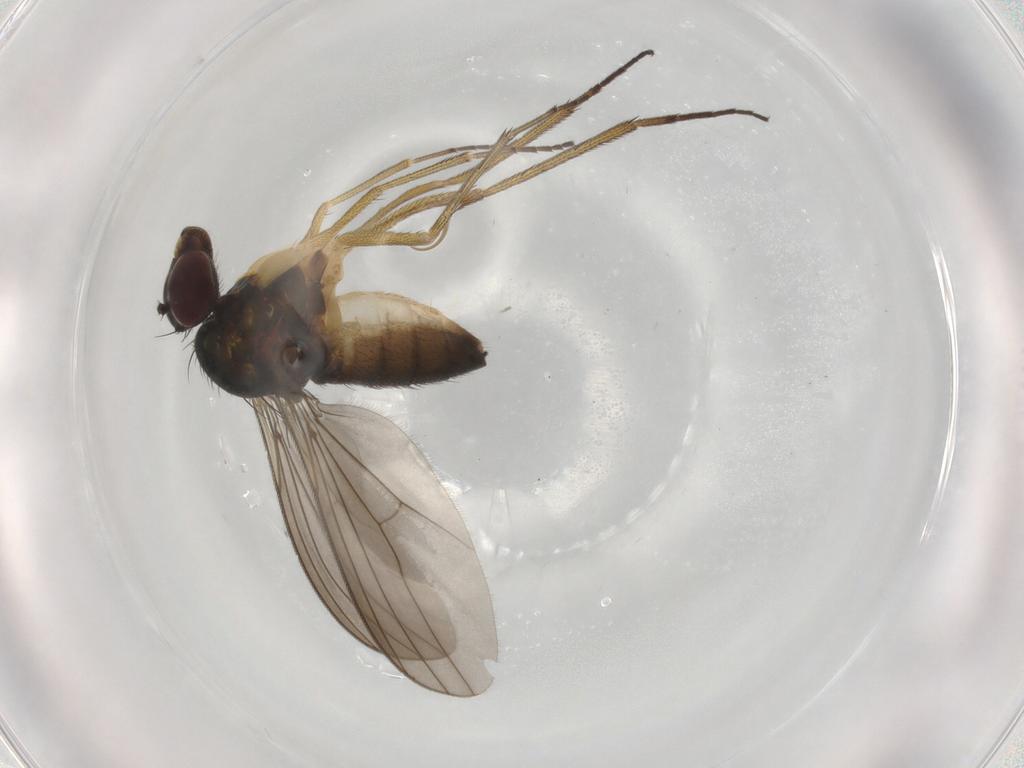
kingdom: Animalia
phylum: Arthropoda
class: Insecta
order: Diptera
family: Dolichopodidae
